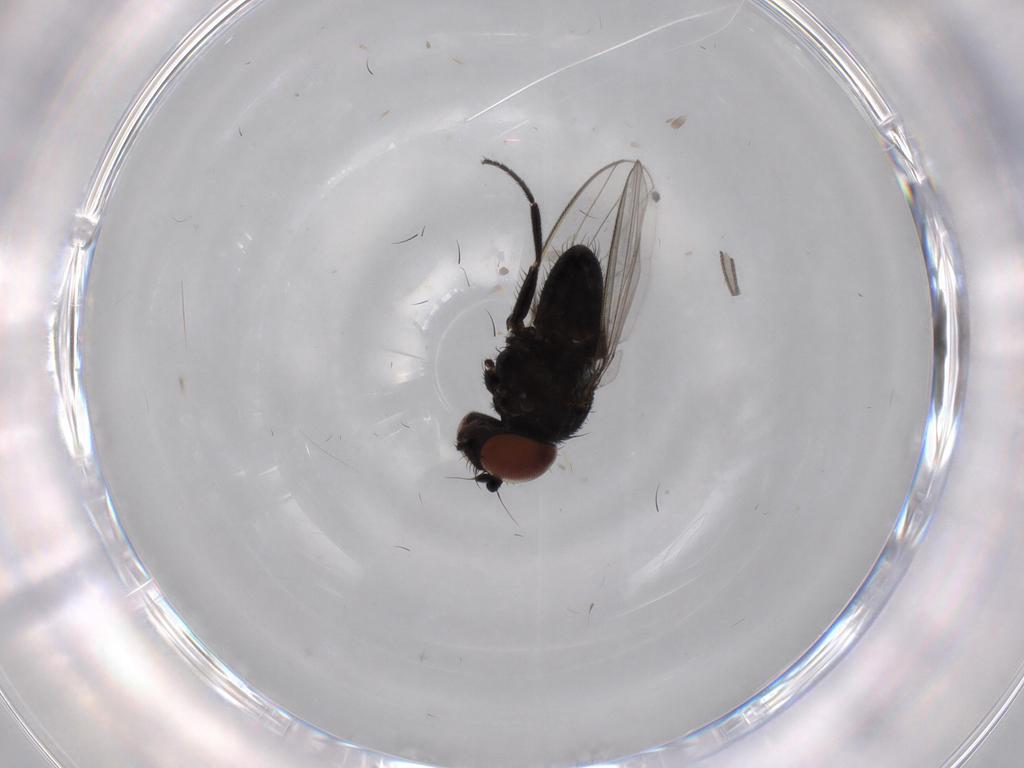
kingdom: Animalia
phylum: Arthropoda
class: Insecta
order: Diptera
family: Milichiidae
